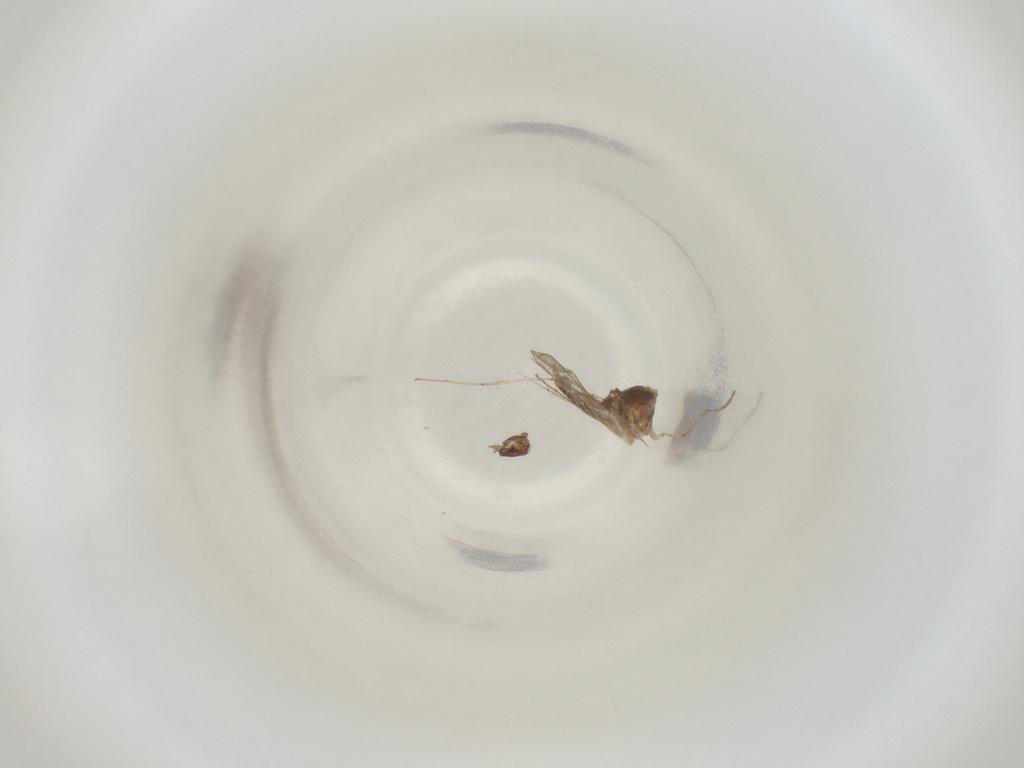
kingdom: Animalia
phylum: Arthropoda
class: Insecta
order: Diptera
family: Cecidomyiidae
